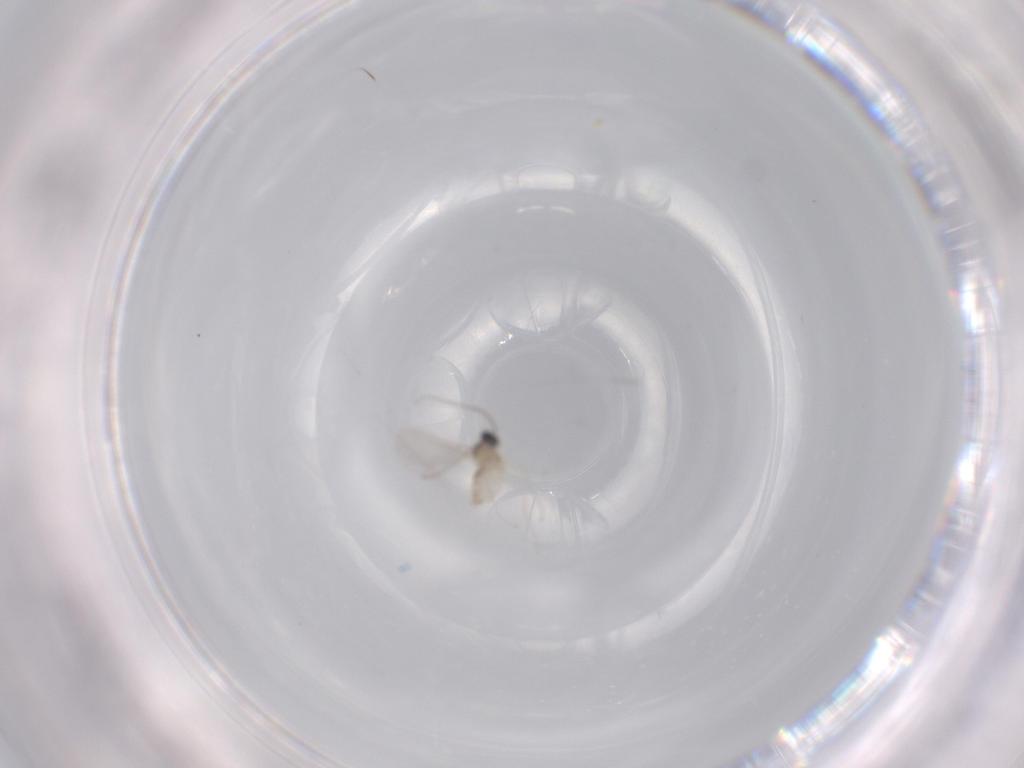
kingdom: Animalia
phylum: Arthropoda
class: Insecta
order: Diptera
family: Cecidomyiidae
